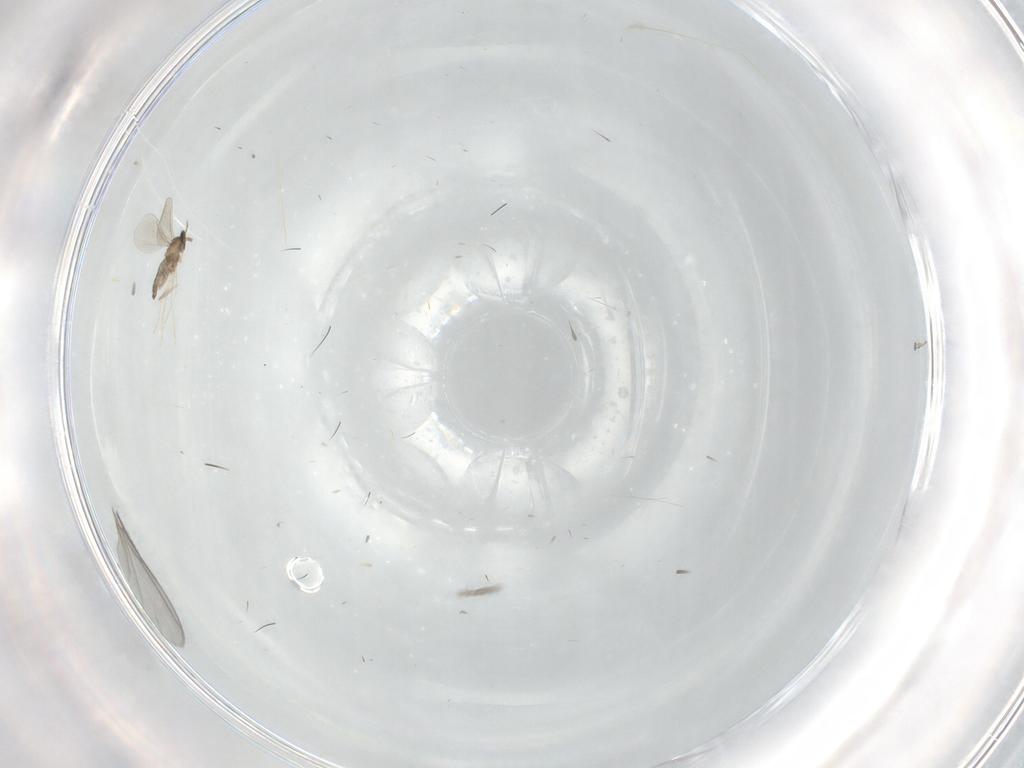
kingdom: Animalia
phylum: Arthropoda
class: Insecta
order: Diptera
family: Cecidomyiidae
